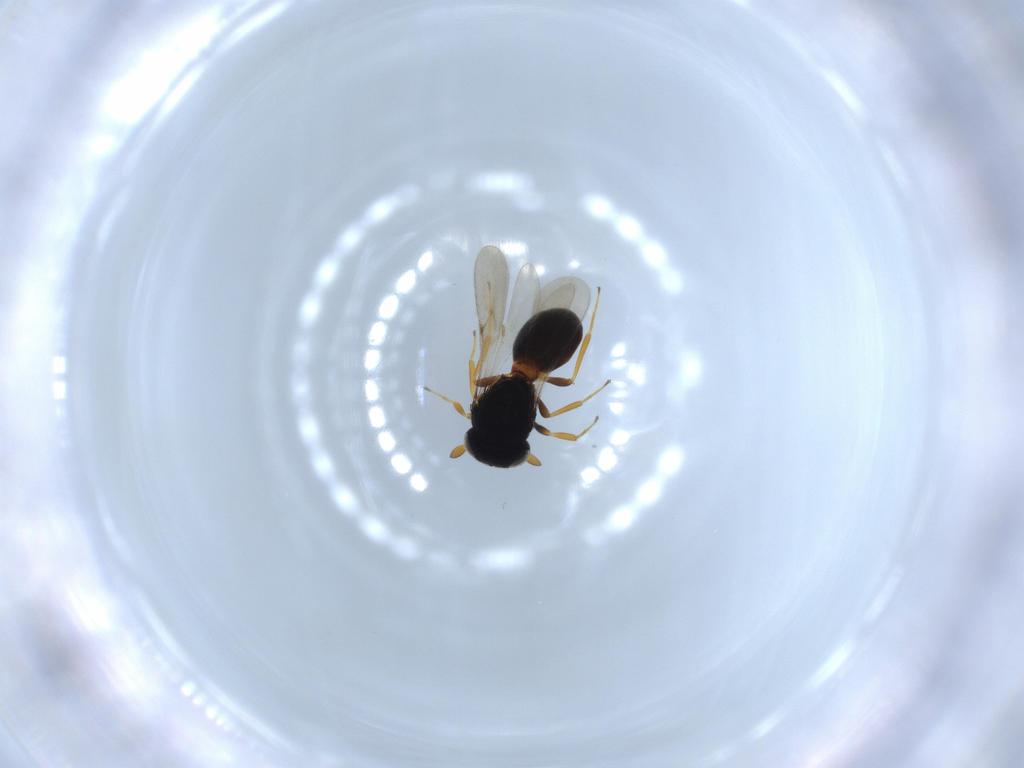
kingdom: Animalia
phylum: Arthropoda
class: Insecta
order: Hymenoptera
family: Scelionidae
